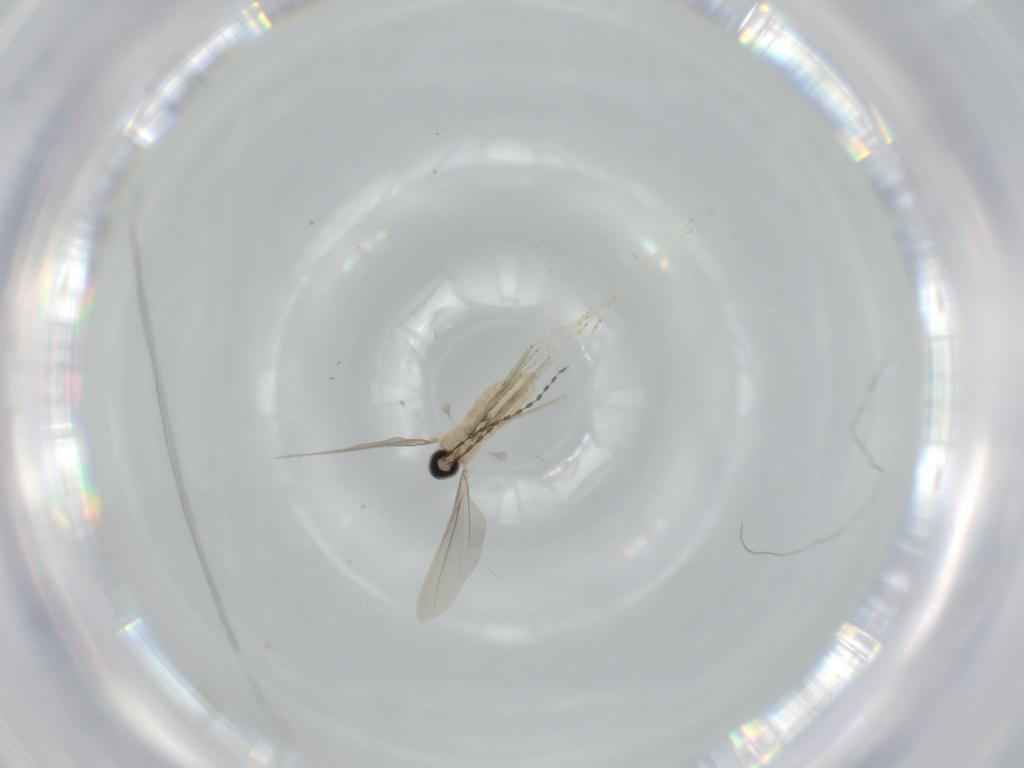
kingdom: Animalia
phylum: Arthropoda
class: Insecta
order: Diptera
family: Cecidomyiidae
